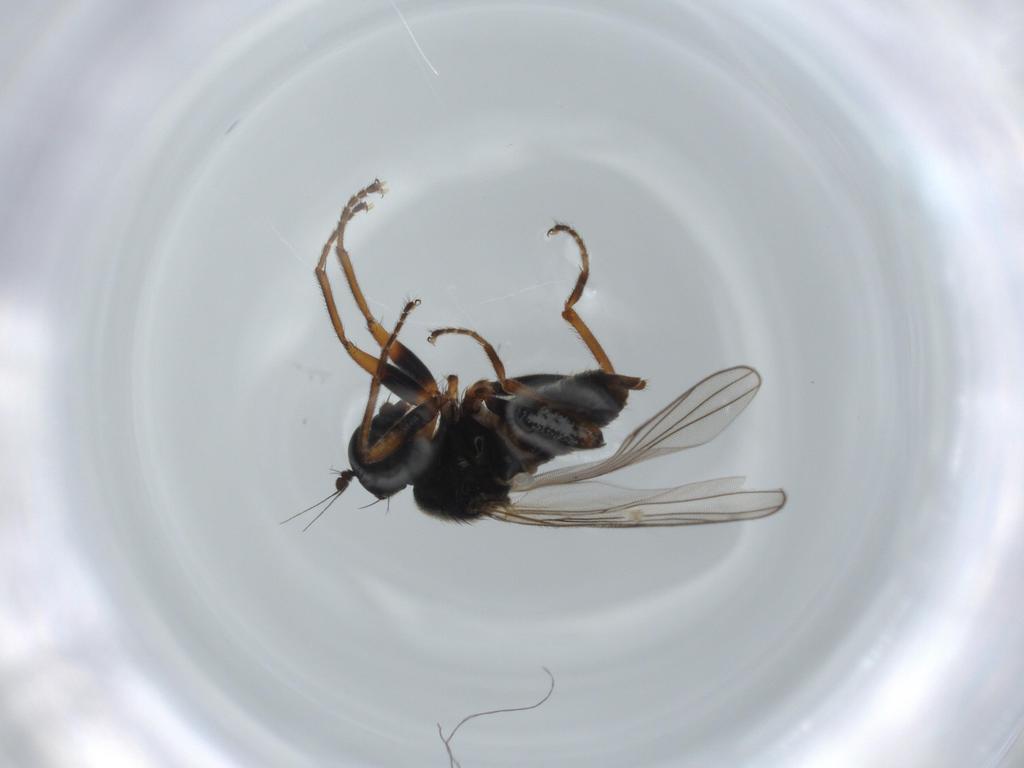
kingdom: Animalia
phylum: Arthropoda
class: Insecta
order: Diptera
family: Hybotidae
